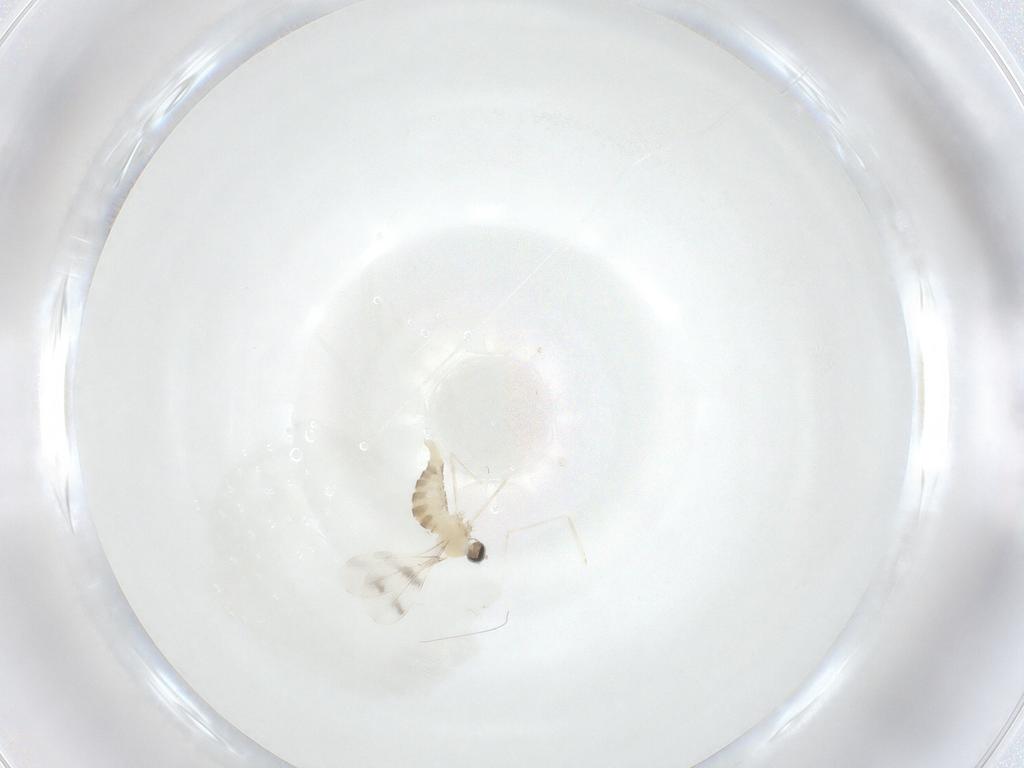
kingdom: Animalia
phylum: Arthropoda
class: Insecta
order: Diptera
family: Cecidomyiidae
